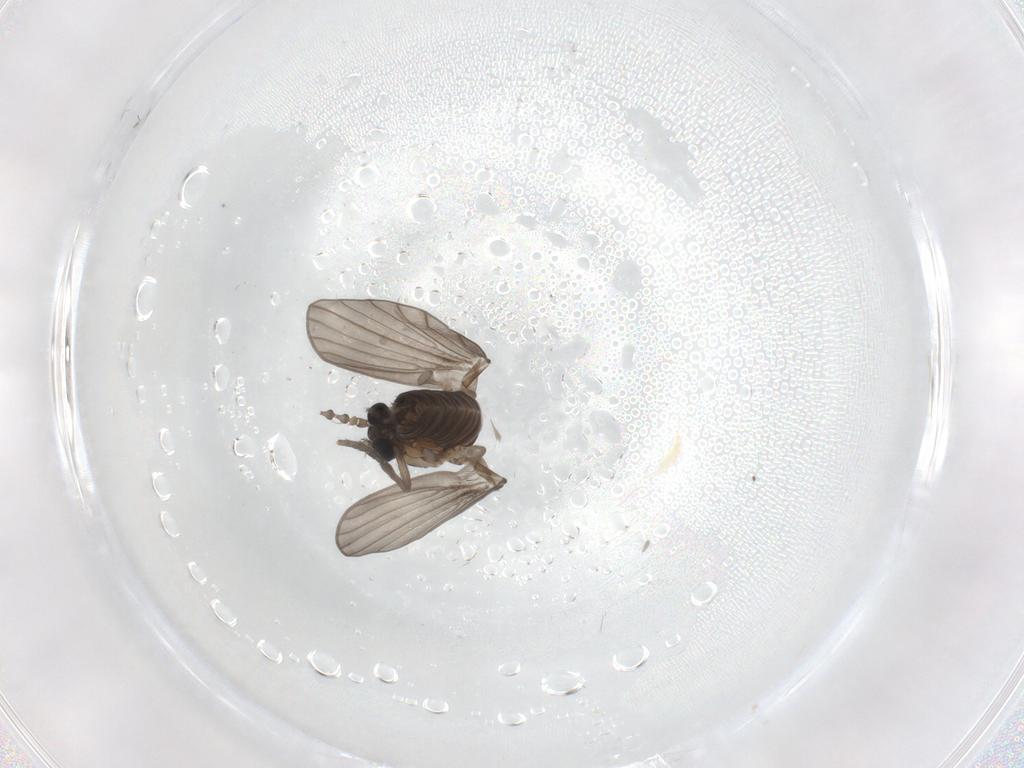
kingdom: Animalia
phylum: Arthropoda
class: Insecta
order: Diptera
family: Psychodidae
